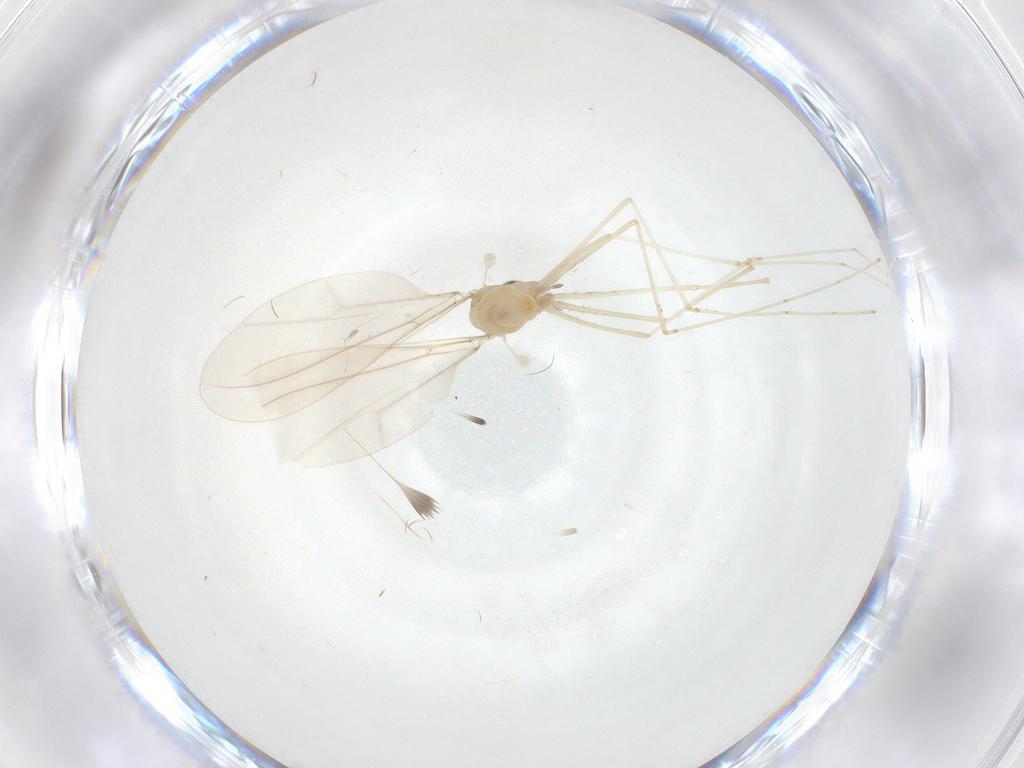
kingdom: Animalia
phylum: Arthropoda
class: Insecta
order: Diptera
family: Cecidomyiidae
